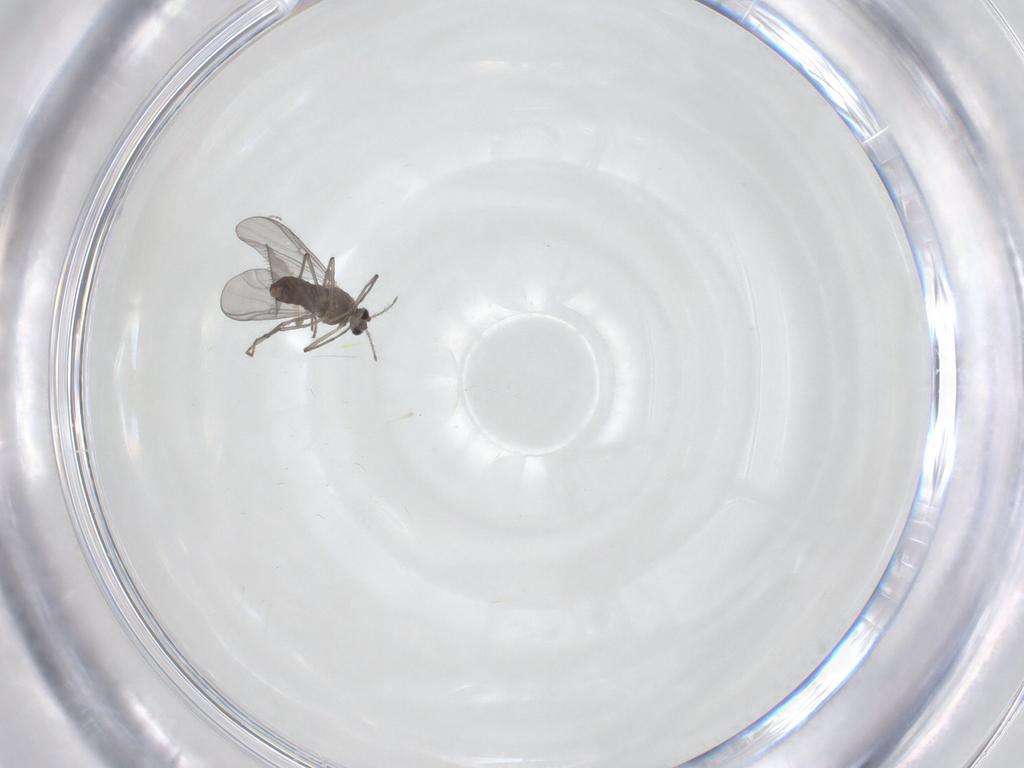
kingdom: Animalia
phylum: Arthropoda
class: Insecta
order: Diptera
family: Chironomidae
